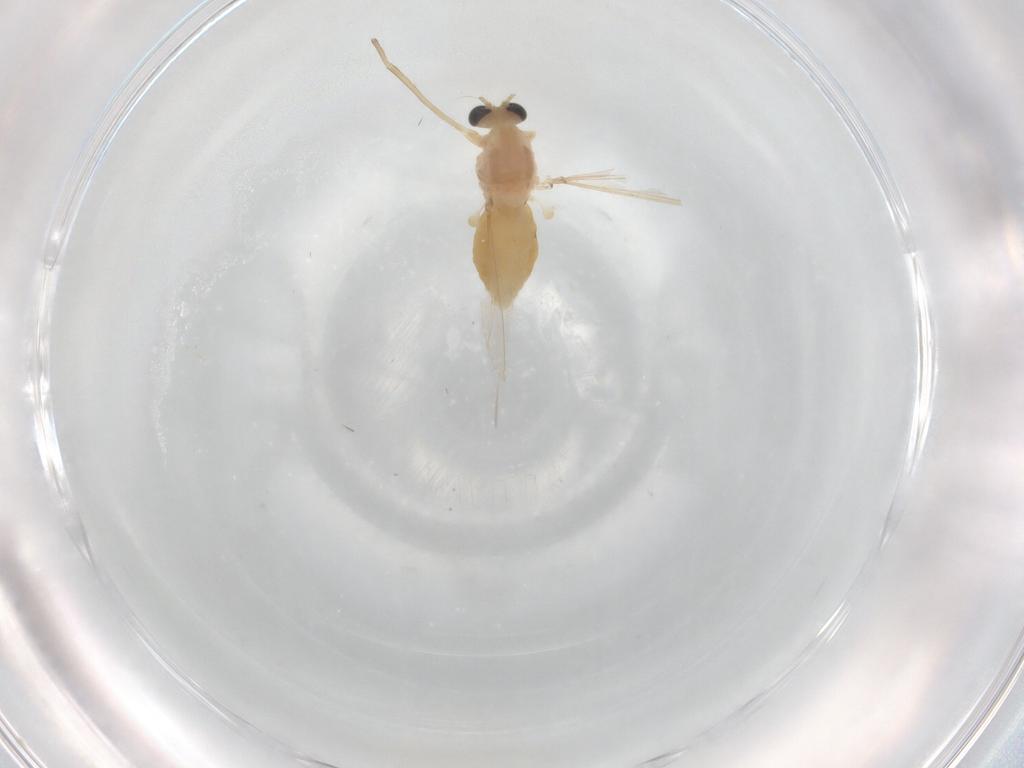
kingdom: Animalia
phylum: Arthropoda
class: Insecta
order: Diptera
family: Chironomidae
